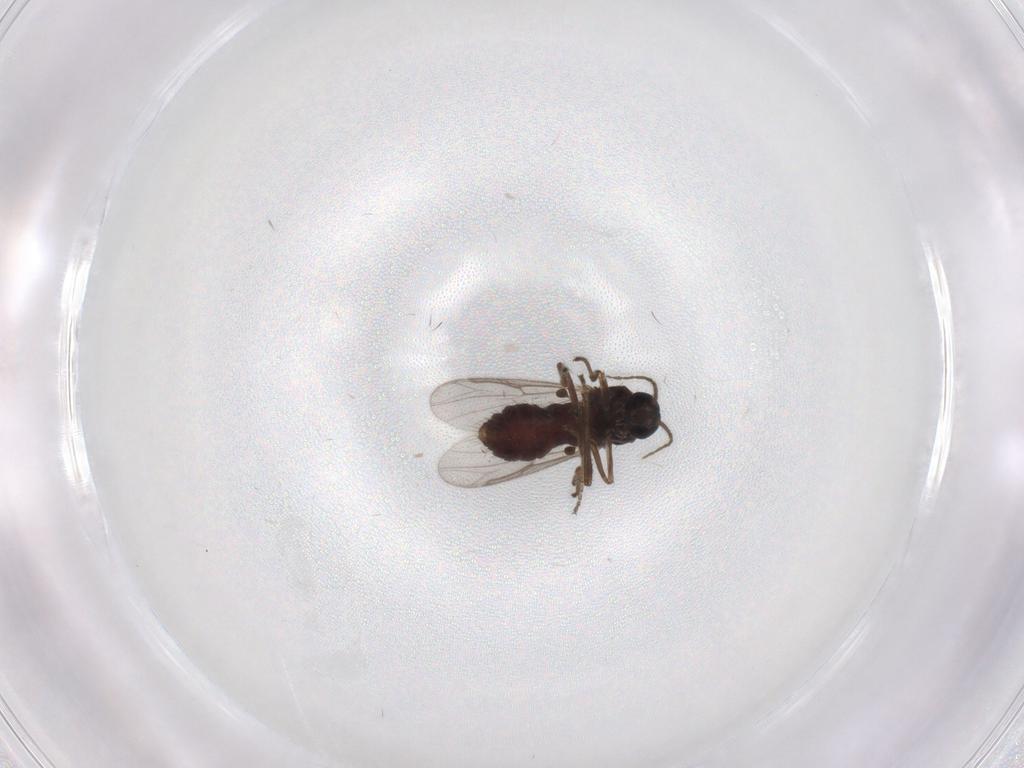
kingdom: Animalia
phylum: Arthropoda
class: Insecta
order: Diptera
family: Ceratopogonidae
